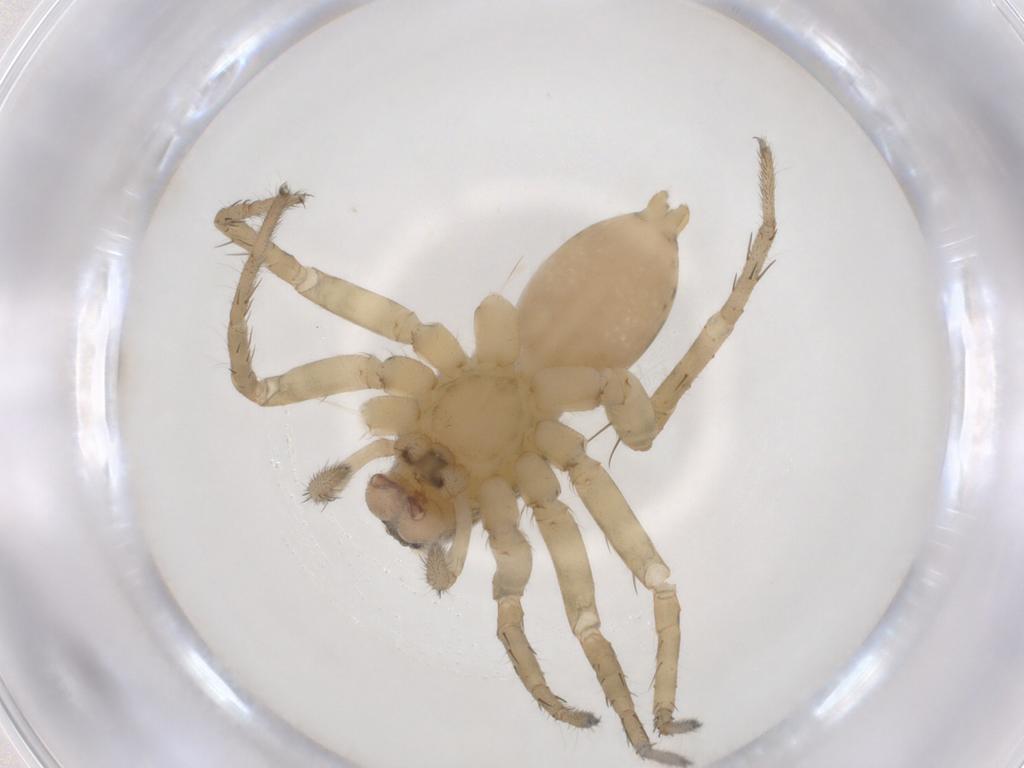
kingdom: Animalia
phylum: Arthropoda
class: Arachnida
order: Araneae
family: Lycosidae
